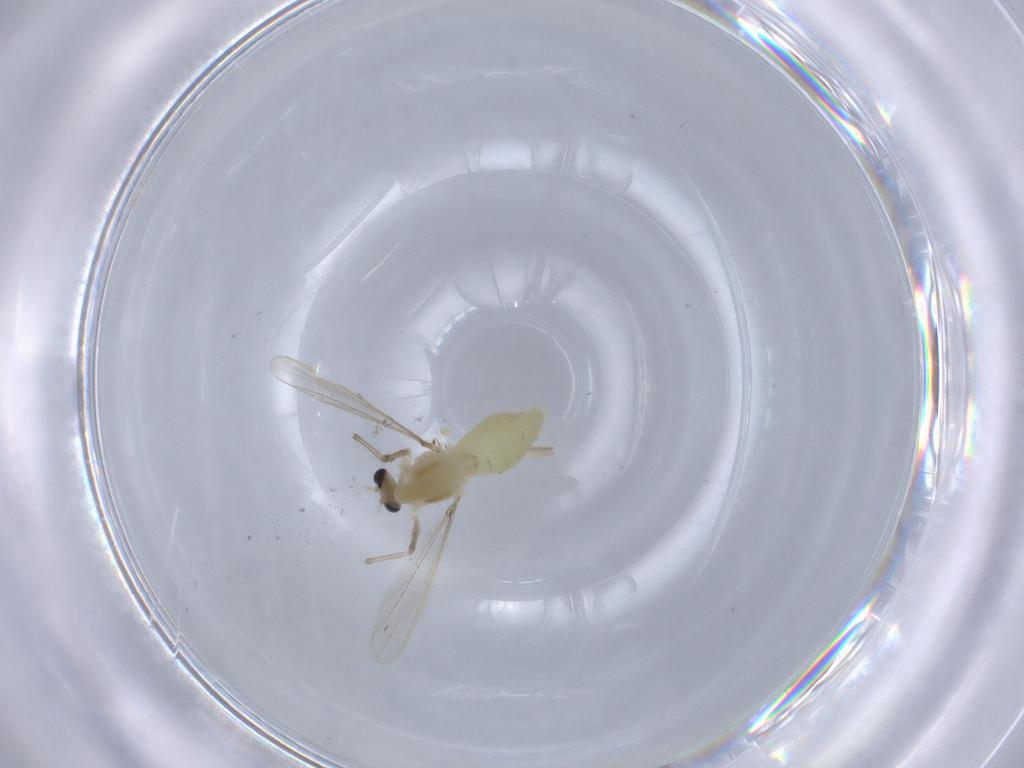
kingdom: Animalia
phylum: Arthropoda
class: Insecta
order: Diptera
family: Chironomidae
